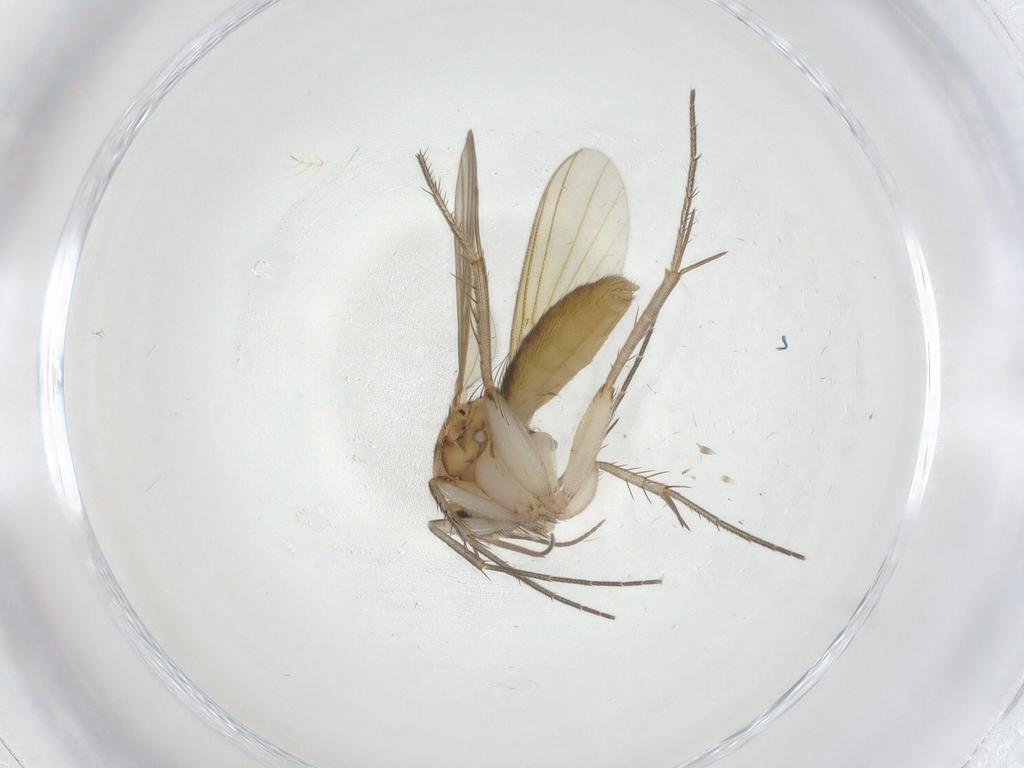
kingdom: Animalia
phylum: Arthropoda
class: Insecta
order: Diptera
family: Mycetophilidae
